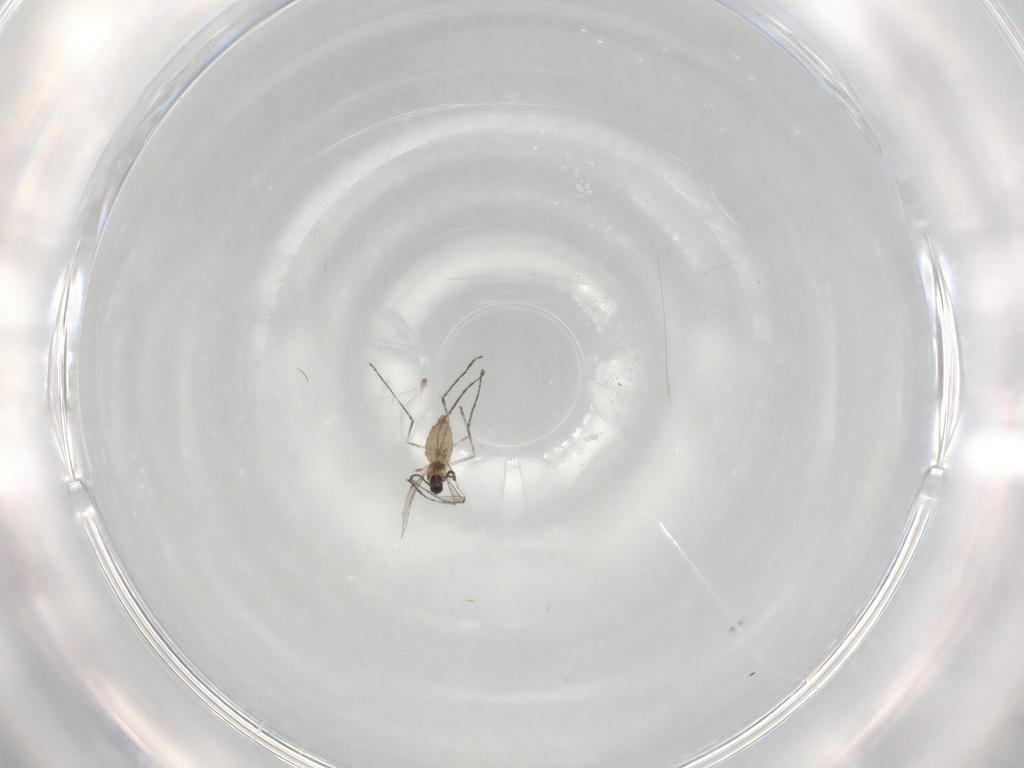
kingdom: Animalia
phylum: Arthropoda
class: Insecta
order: Diptera
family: Cecidomyiidae
